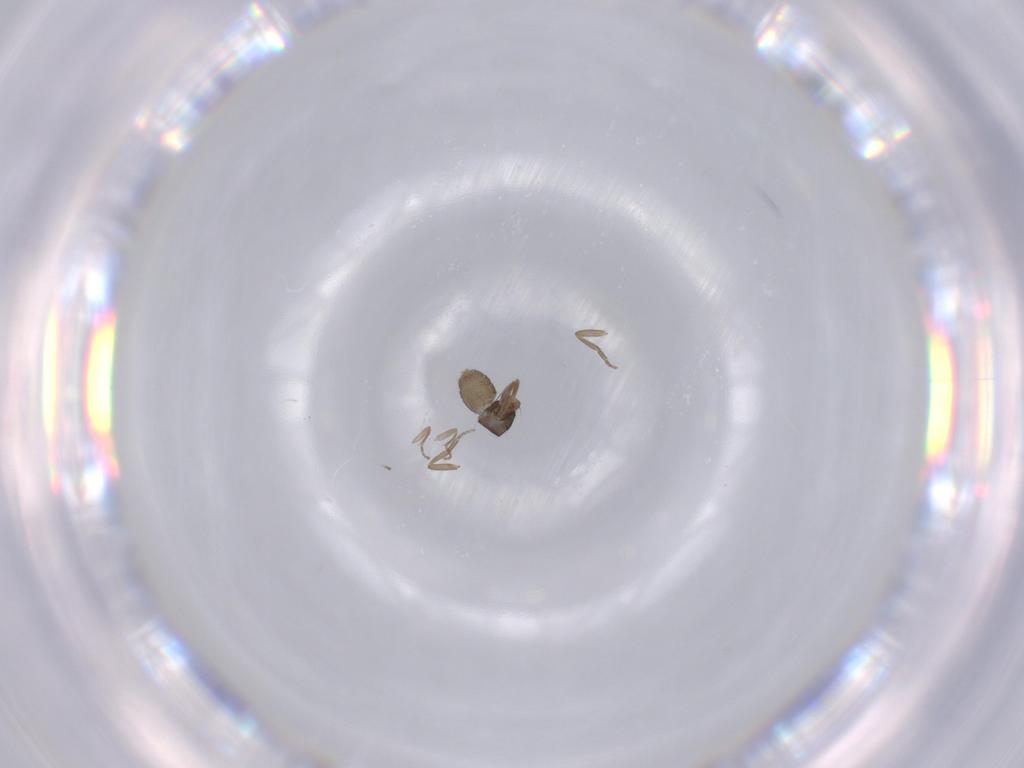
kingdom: Animalia
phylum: Arthropoda
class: Insecta
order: Diptera
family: Phoridae
